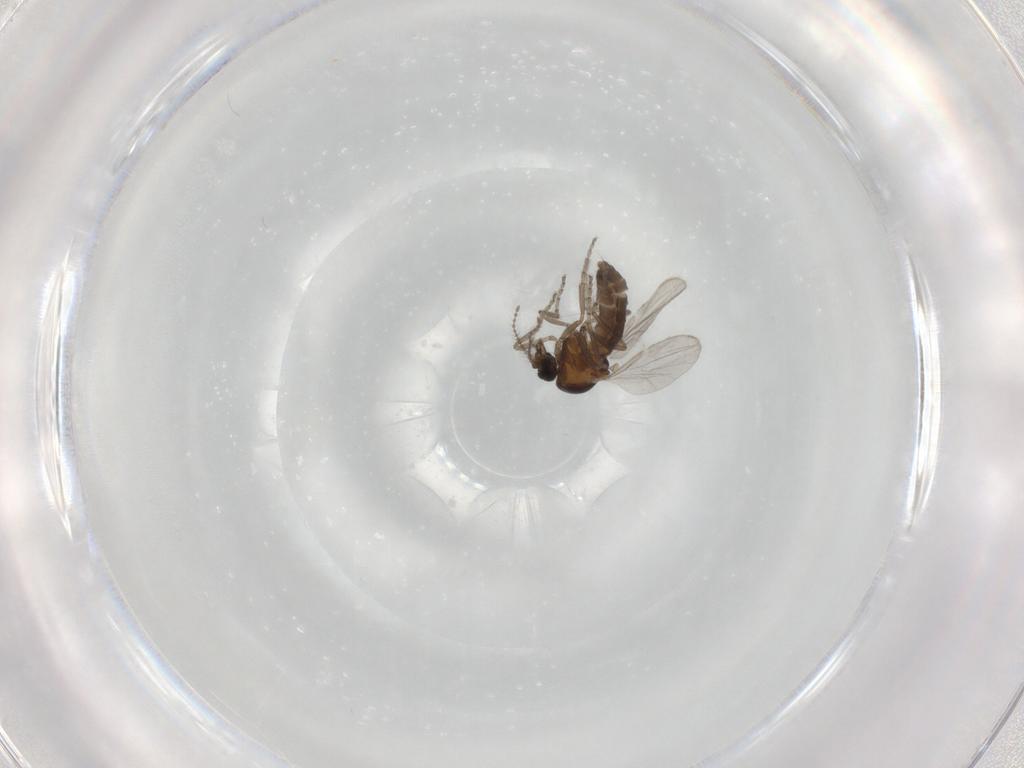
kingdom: Animalia
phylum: Arthropoda
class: Insecta
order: Diptera
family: Ceratopogonidae
